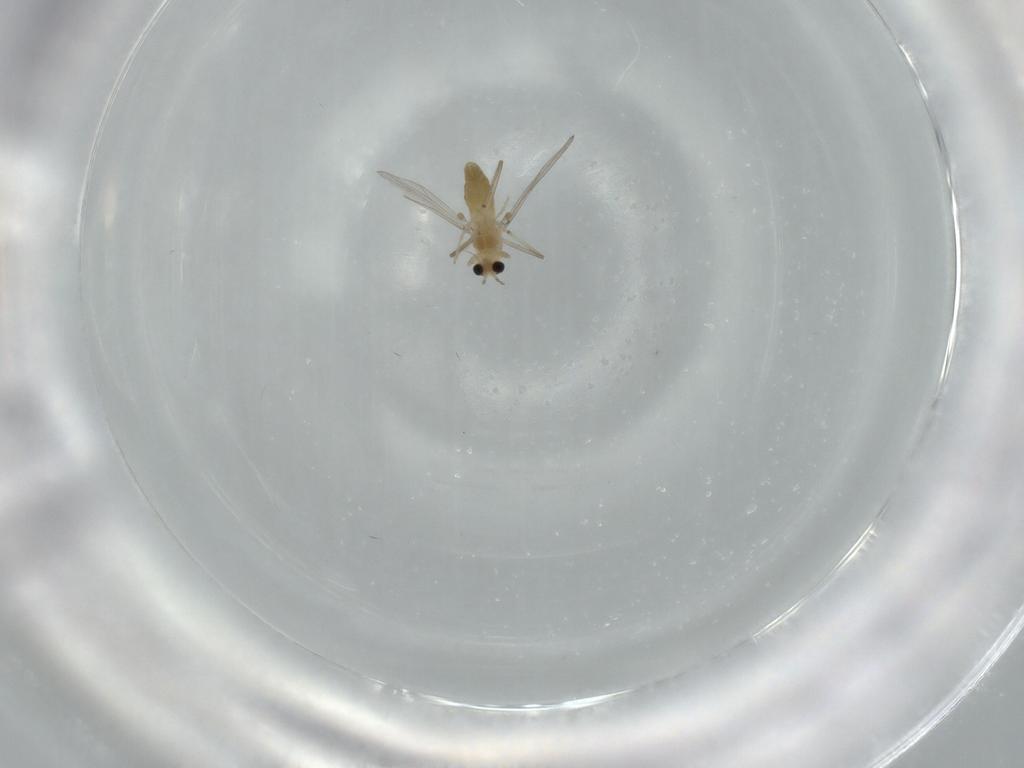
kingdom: Animalia
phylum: Arthropoda
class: Insecta
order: Diptera
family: Chironomidae
